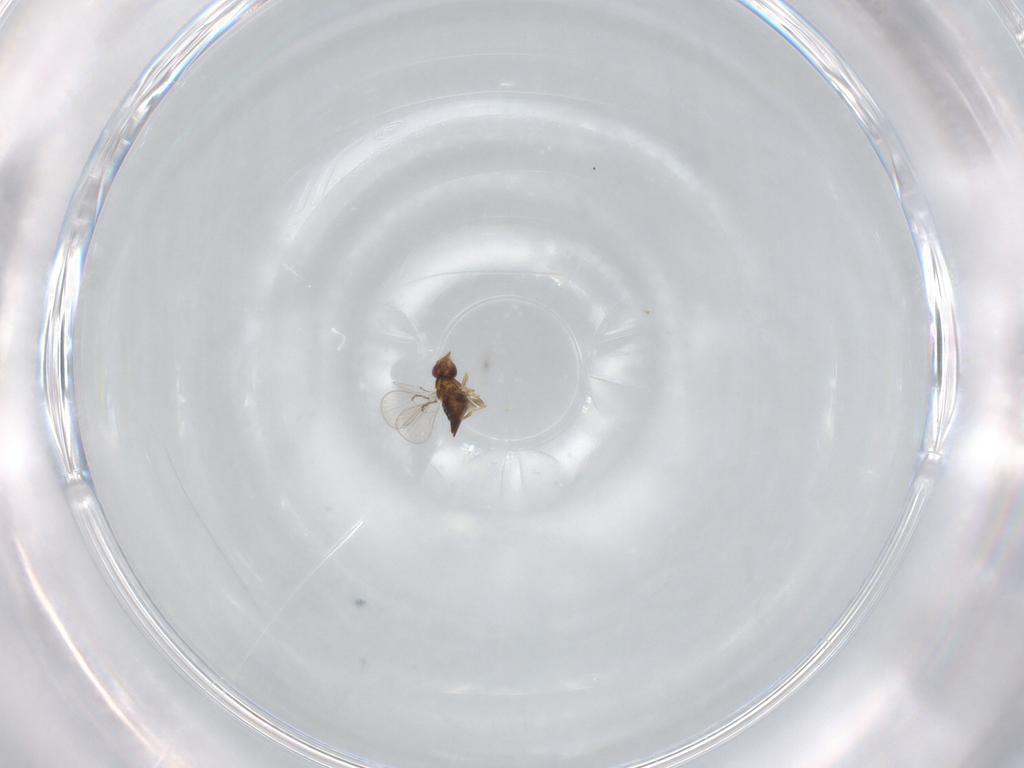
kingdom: Animalia
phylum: Arthropoda
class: Insecta
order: Hymenoptera
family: Trichogrammatidae
